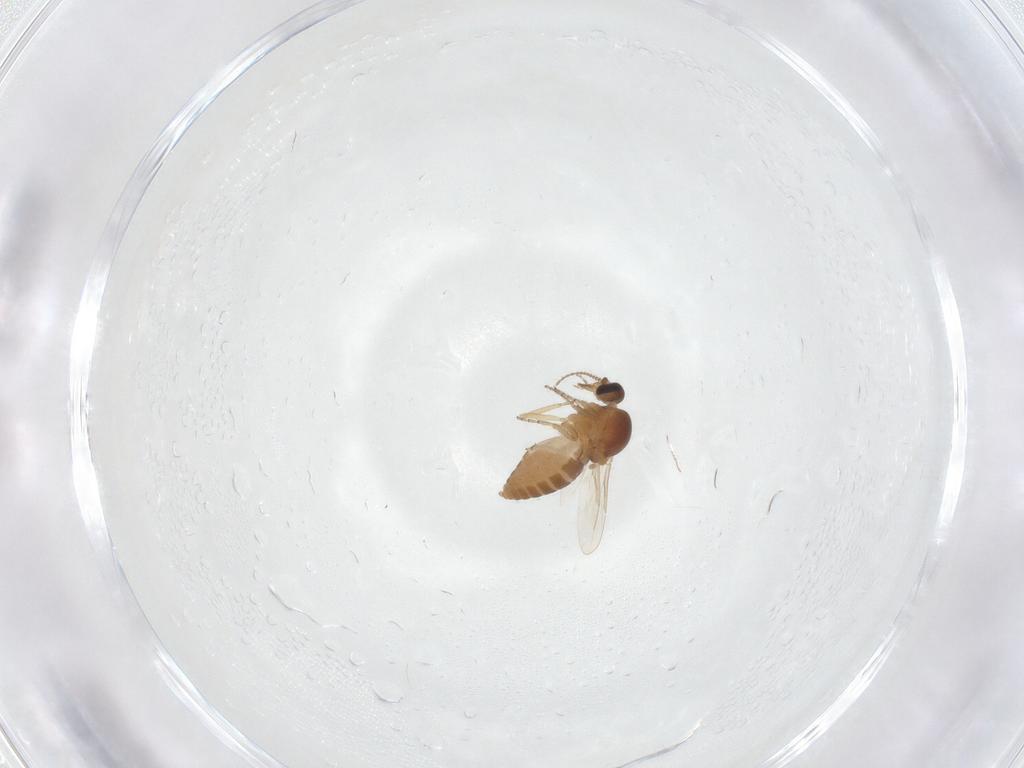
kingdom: Animalia
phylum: Arthropoda
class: Insecta
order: Diptera
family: Ceratopogonidae
